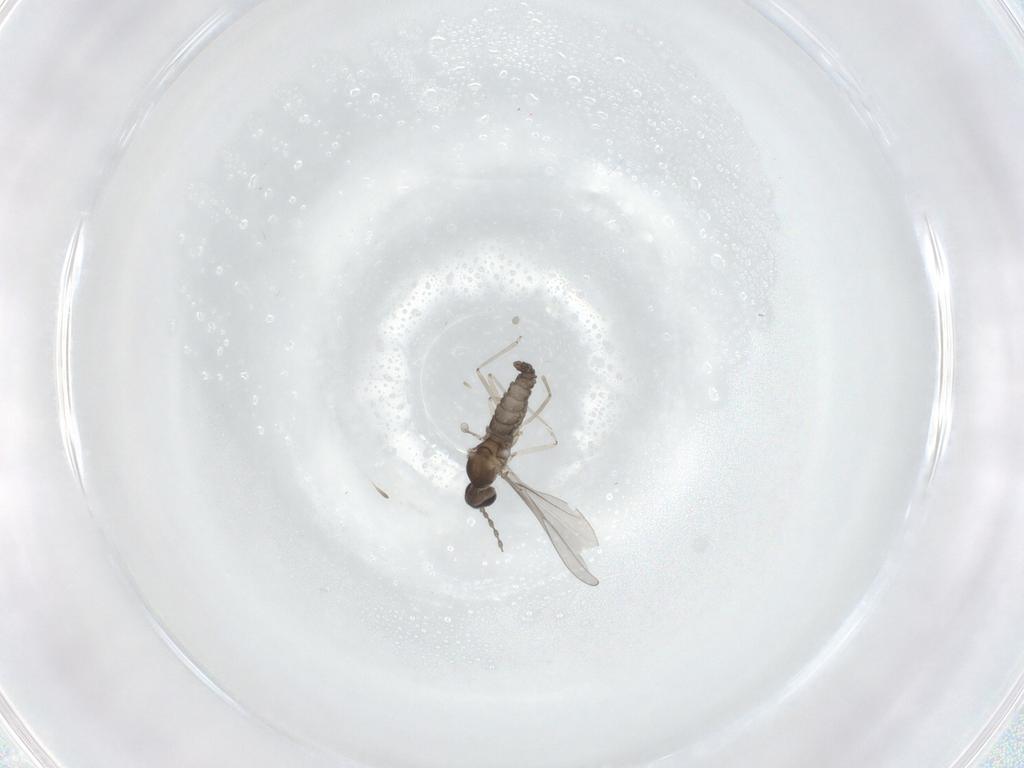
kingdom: Animalia
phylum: Arthropoda
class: Insecta
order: Diptera
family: Cecidomyiidae
